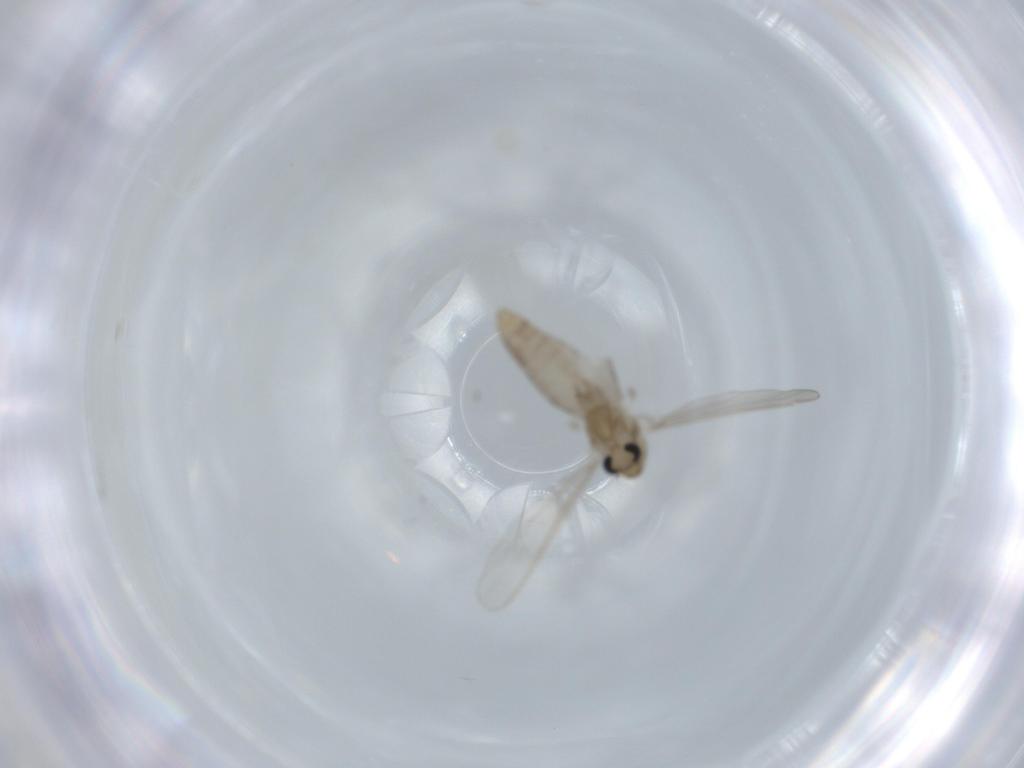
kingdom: Animalia
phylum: Arthropoda
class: Insecta
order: Diptera
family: Chironomidae
